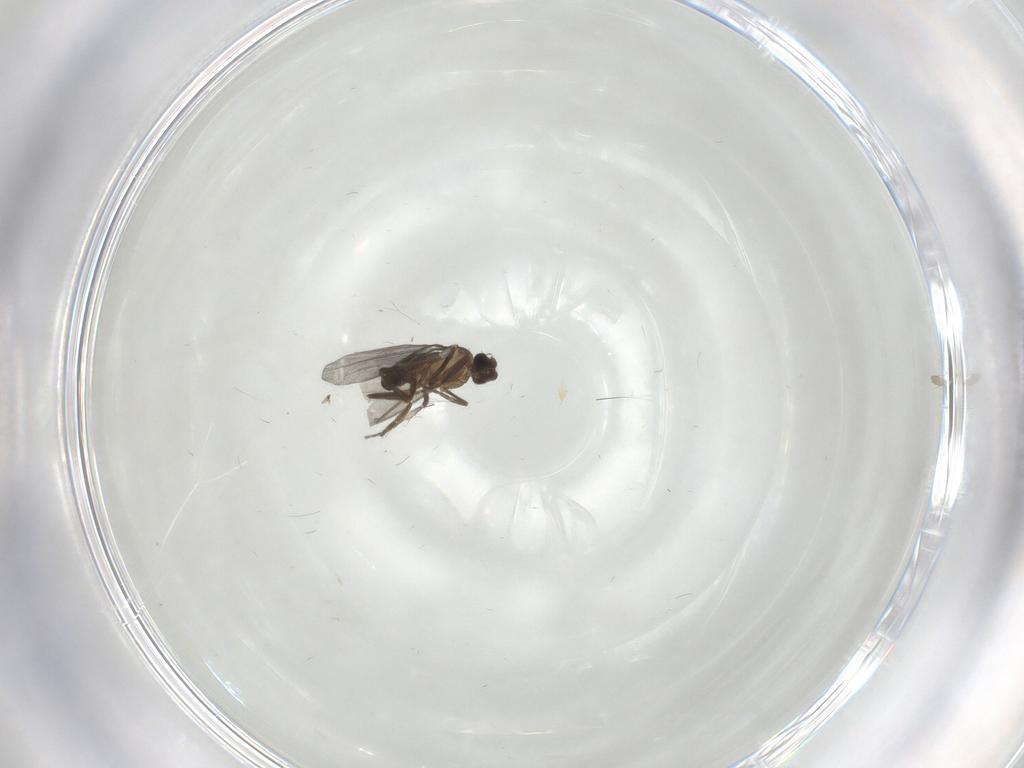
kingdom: Animalia
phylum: Arthropoda
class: Insecta
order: Diptera
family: Phoridae
